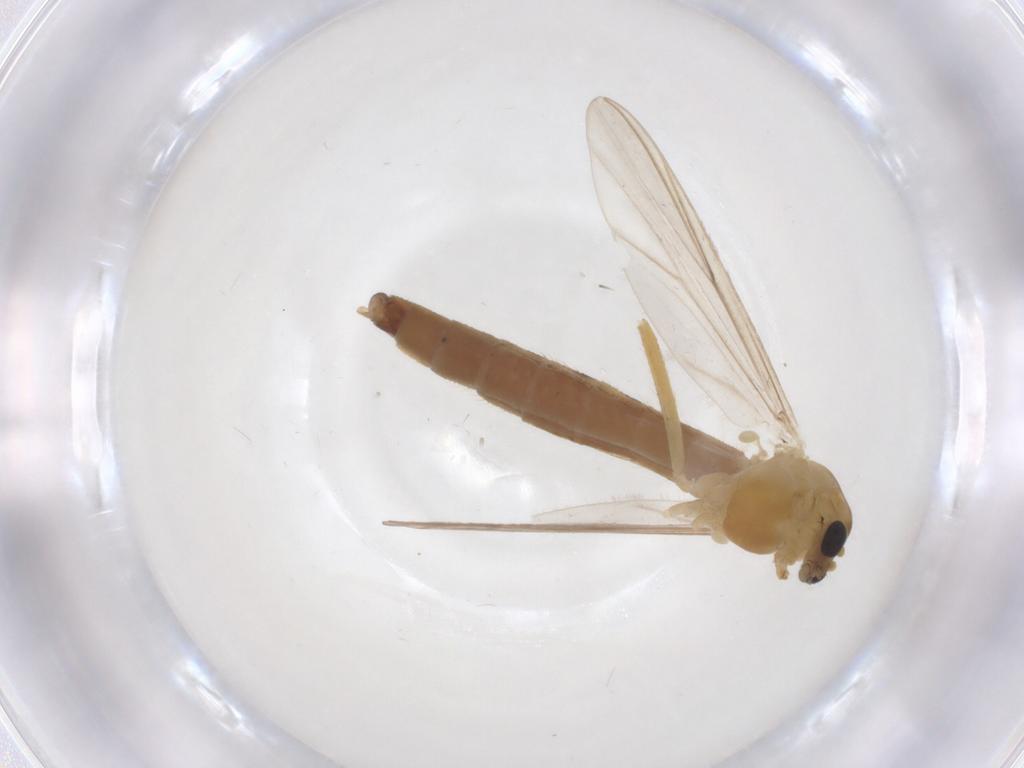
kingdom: Animalia
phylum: Arthropoda
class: Insecta
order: Diptera
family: Chironomidae
